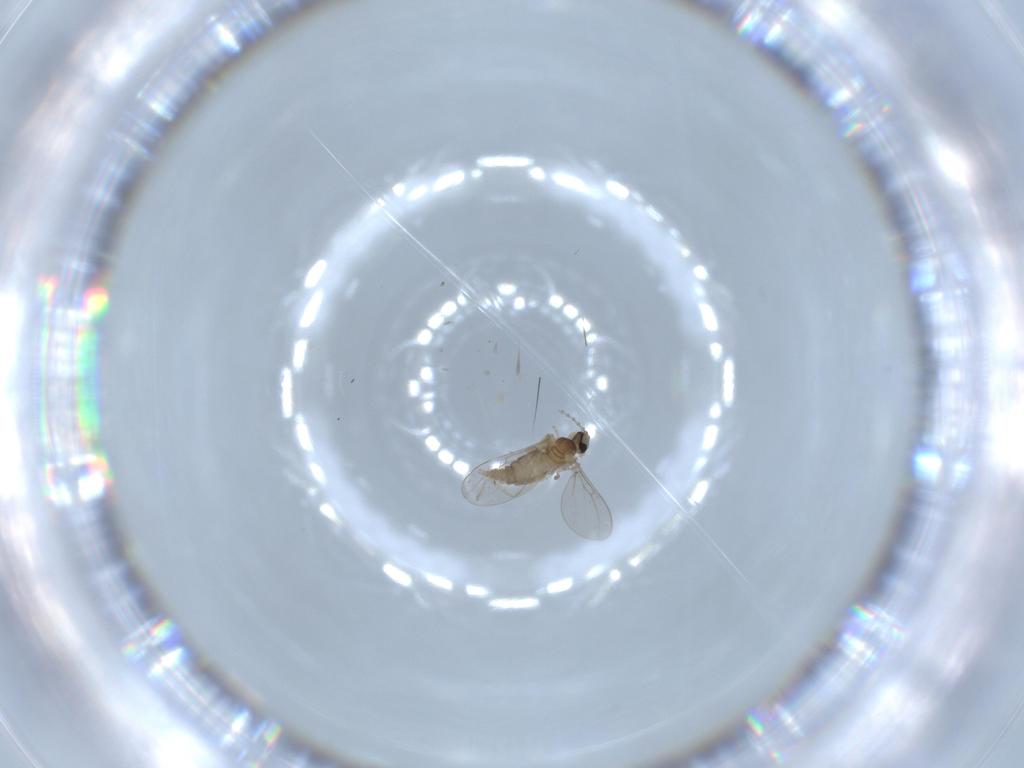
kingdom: Animalia
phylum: Arthropoda
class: Insecta
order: Diptera
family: Cecidomyiidae
